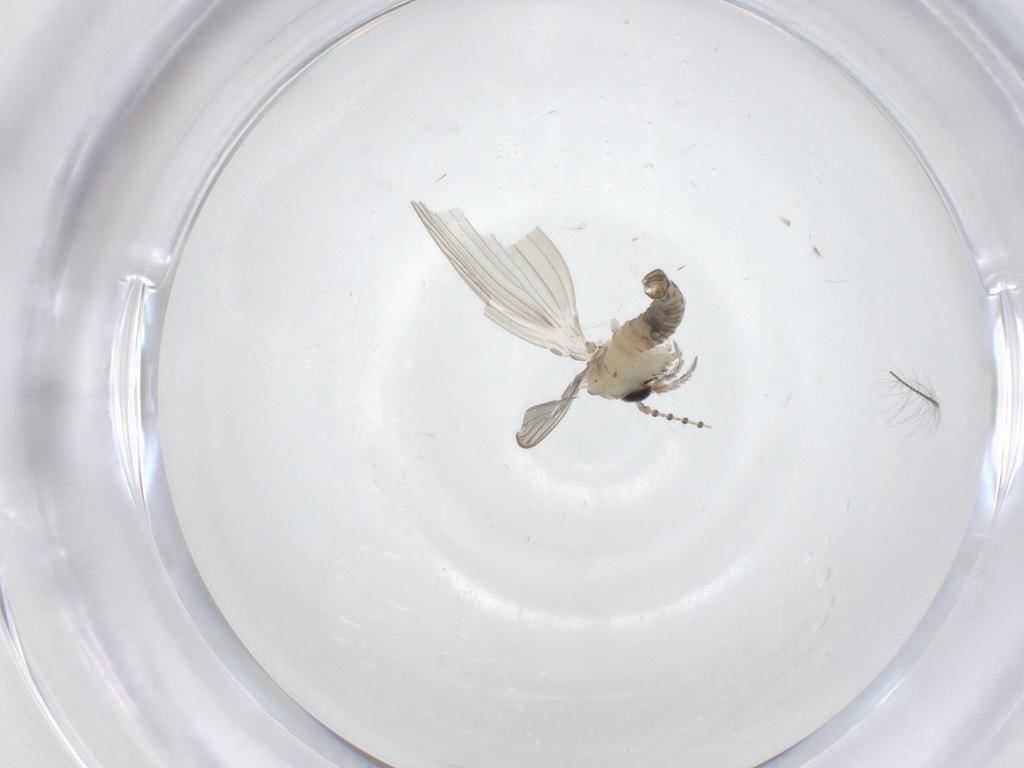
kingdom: Animalia
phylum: Arthropoda
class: Insecta
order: Diptera
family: Psychodidae
